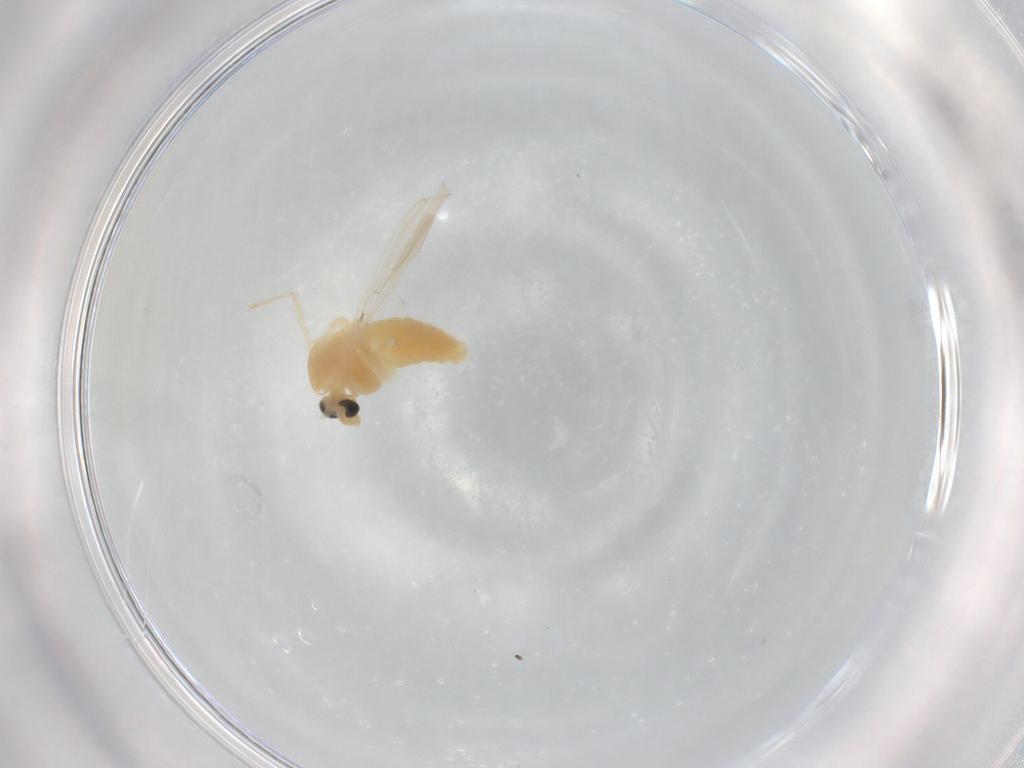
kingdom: Animalia
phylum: Arthropoda
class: Insecta
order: Diptera
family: Chironomidae
